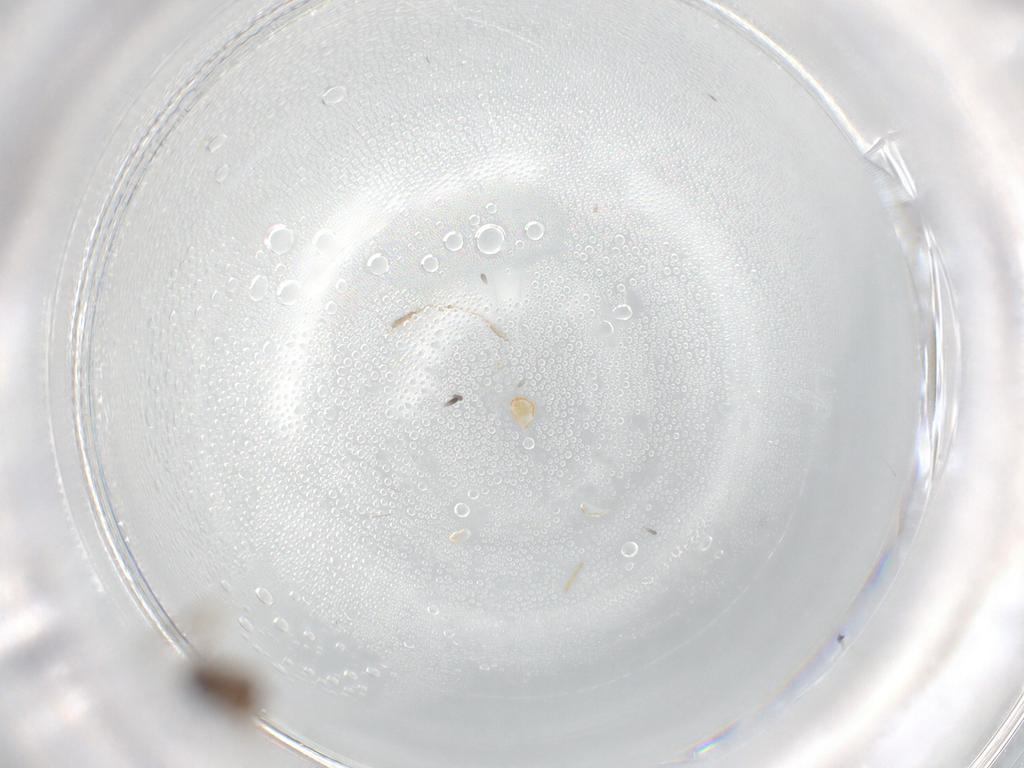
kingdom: Animalia
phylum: Arthropoda
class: Insecta
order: Diptera
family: Chironomidae
